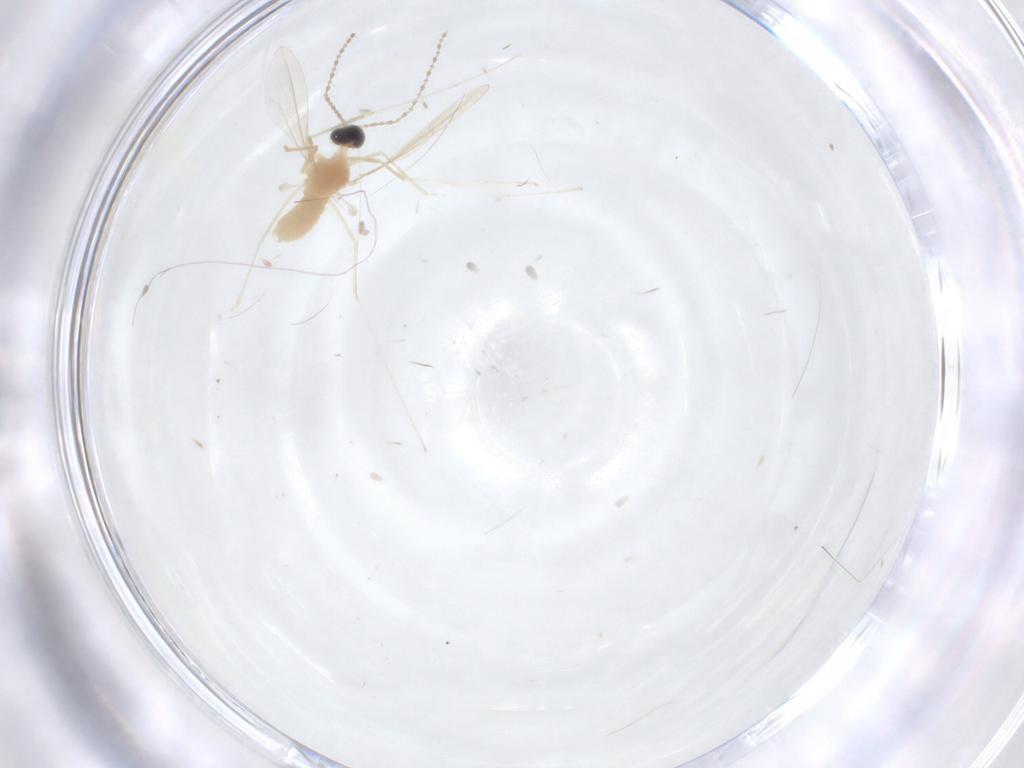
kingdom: Animalia
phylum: Arthropoda
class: Insecta
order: Diptera
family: Cecidomyiidae
